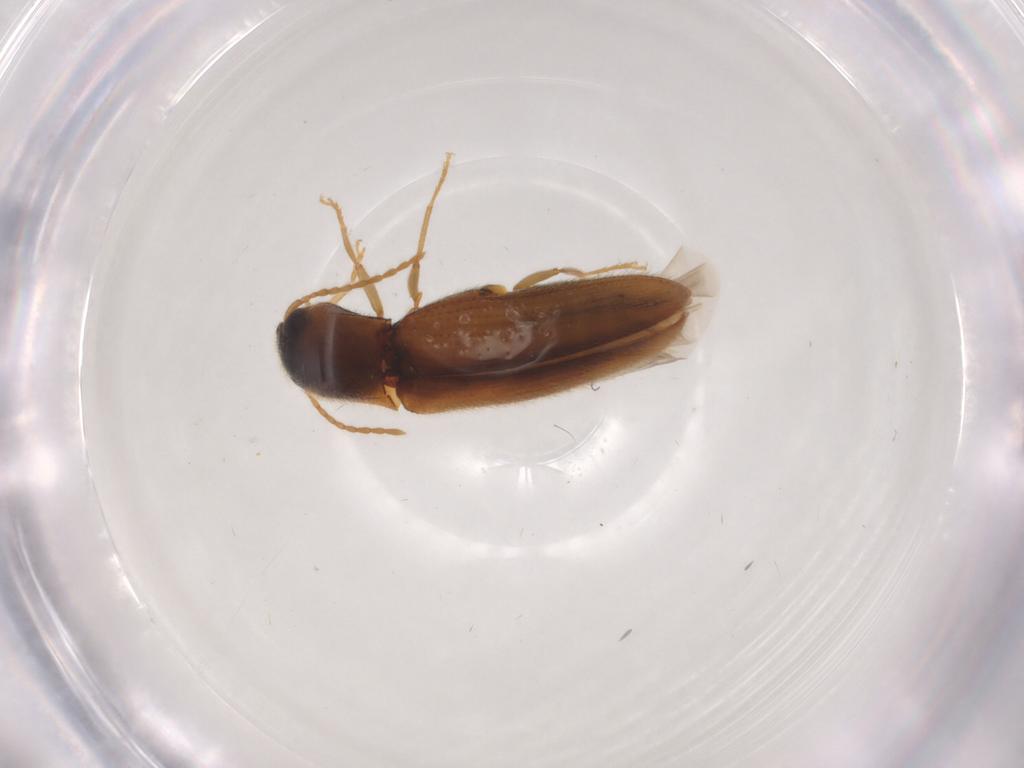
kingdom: Animalia
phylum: Arthropoda
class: Insecta
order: Coleoptera
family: Elateridae
